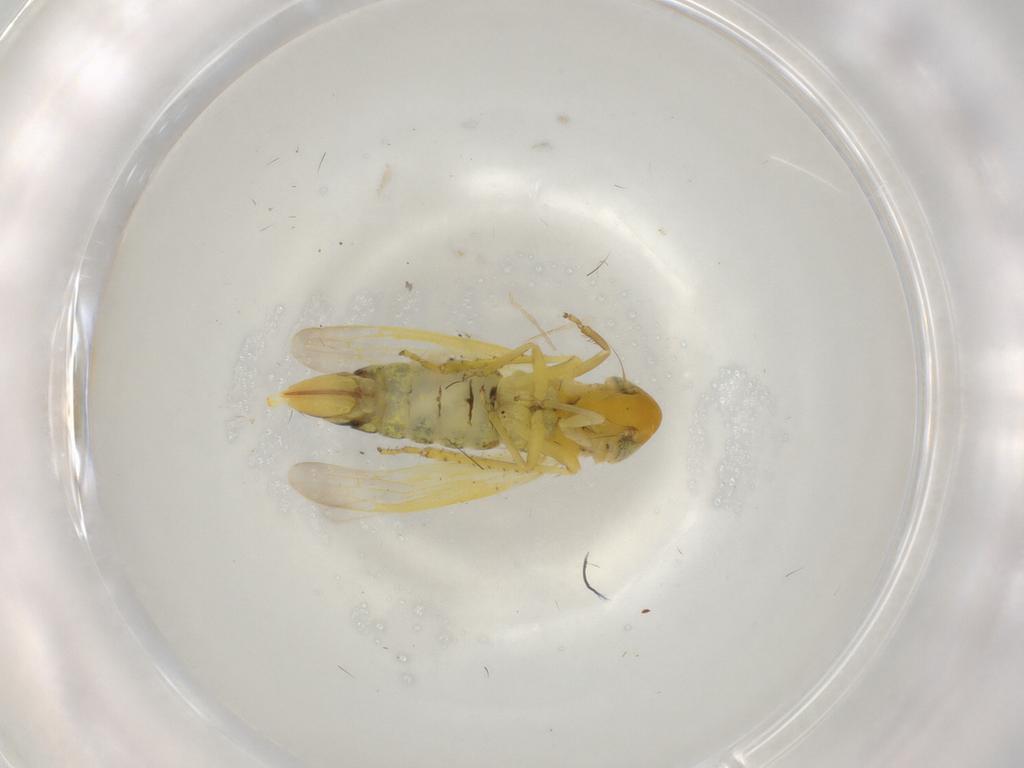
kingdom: Animalia
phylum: Arthropoda
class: Insecta
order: Hemiptera
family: Cicadellidae
